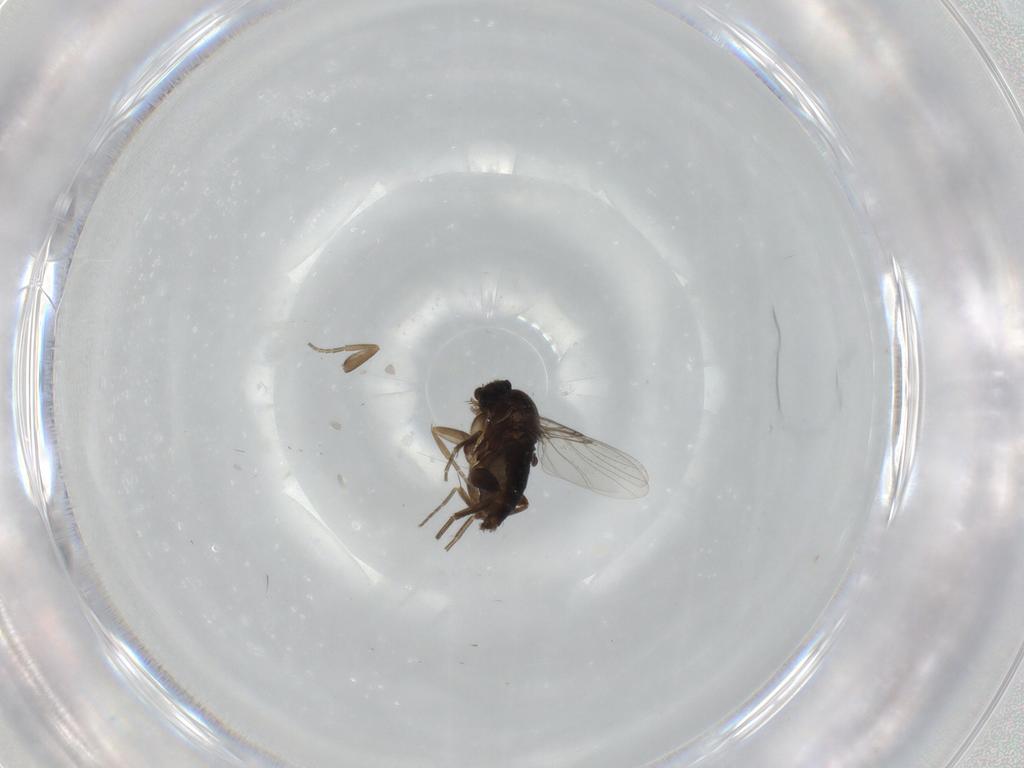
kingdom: Animalia
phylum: Arthropoda
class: Insecta
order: Diptera
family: Phoridae
